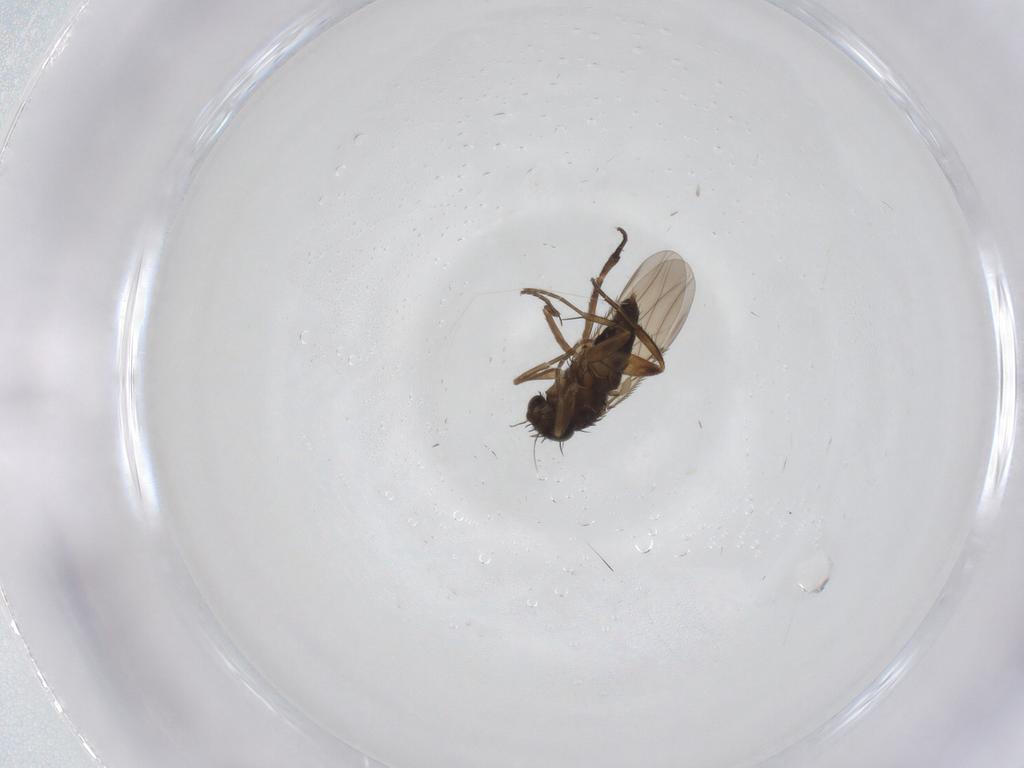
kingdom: Animalia
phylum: Arthropoda
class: Insecta
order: Diptera
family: Phoridae
